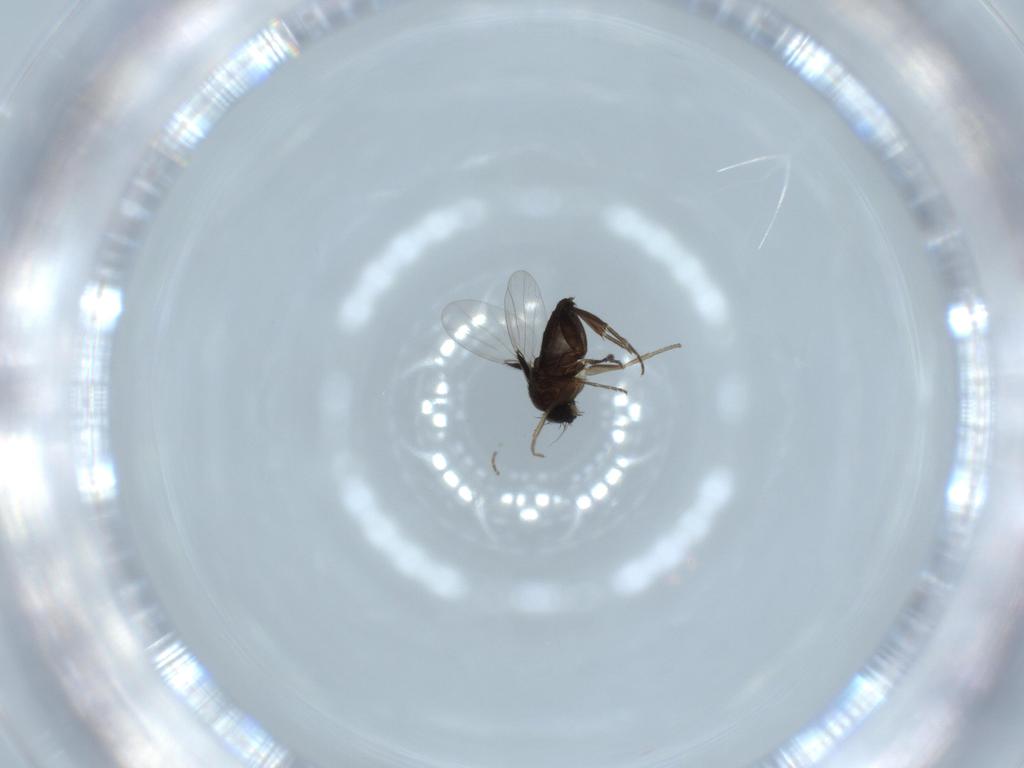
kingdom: Animalia
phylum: Arthropoda
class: Insecta
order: Diptera
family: Phoridae
